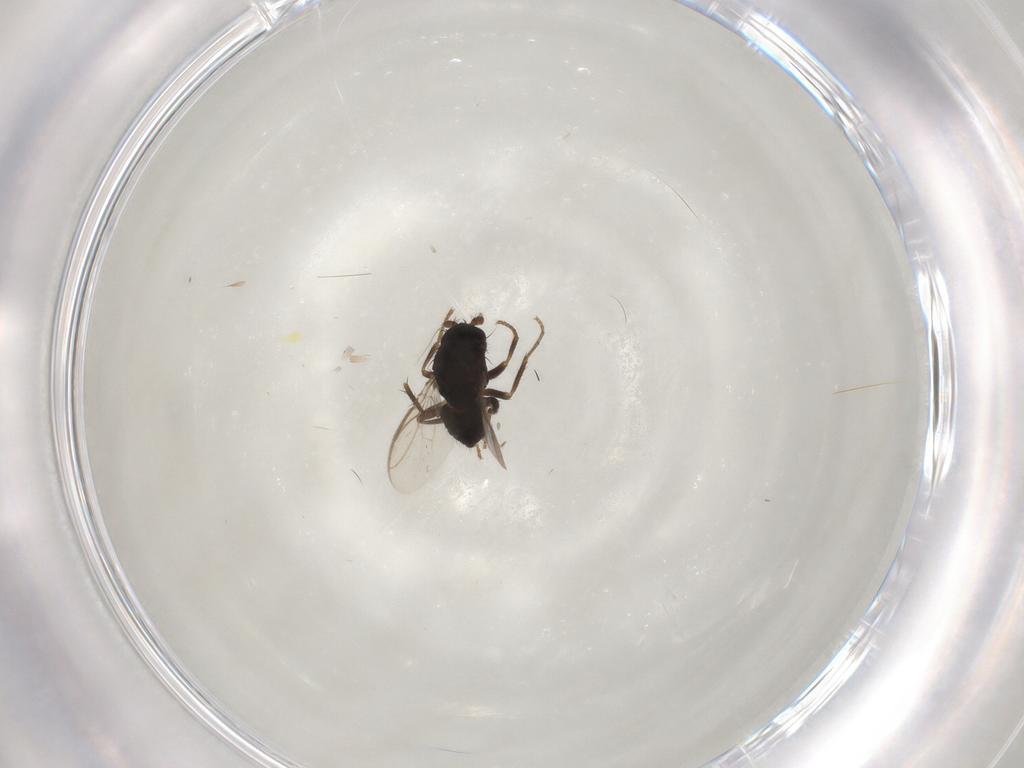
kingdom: Animalia
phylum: Arthropoda
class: Insecta
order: Diptera
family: Sphaeroceridae
